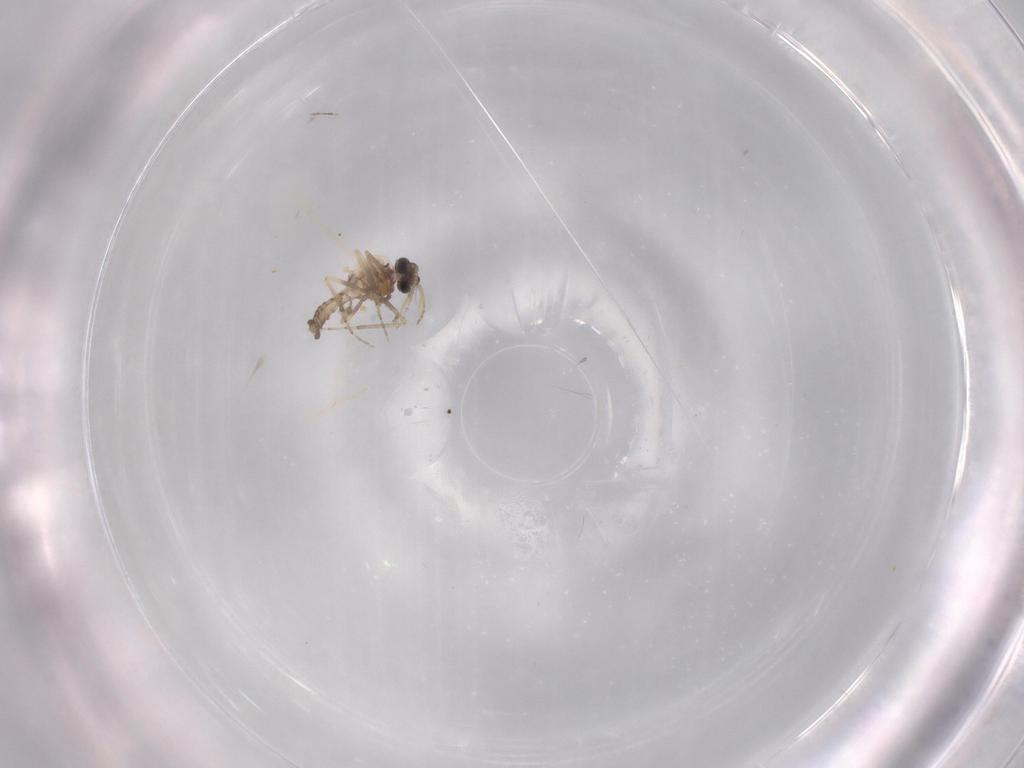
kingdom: Animalia
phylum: Arthropoda
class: Insecta
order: Diptera
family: Ceratopogonidae
